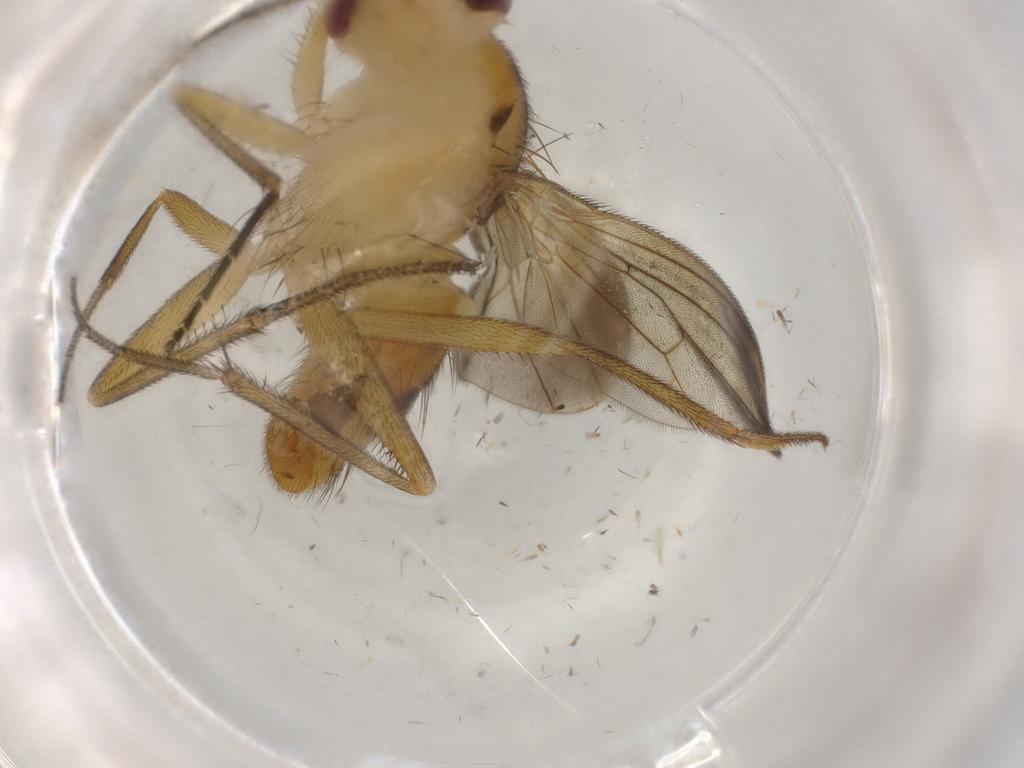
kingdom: Animalia
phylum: Arthropoda
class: Insecta
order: Diptera
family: Clusiidae
